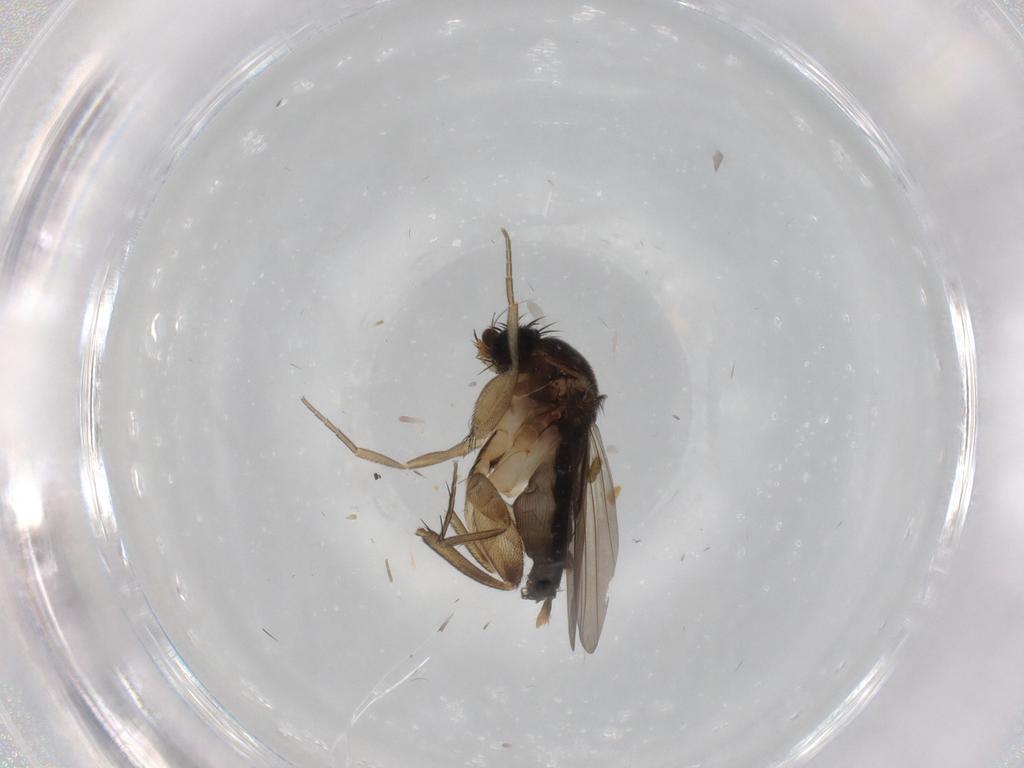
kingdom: Animalia
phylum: Arthropoda
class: Insecta
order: Diptera
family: Phoridae
